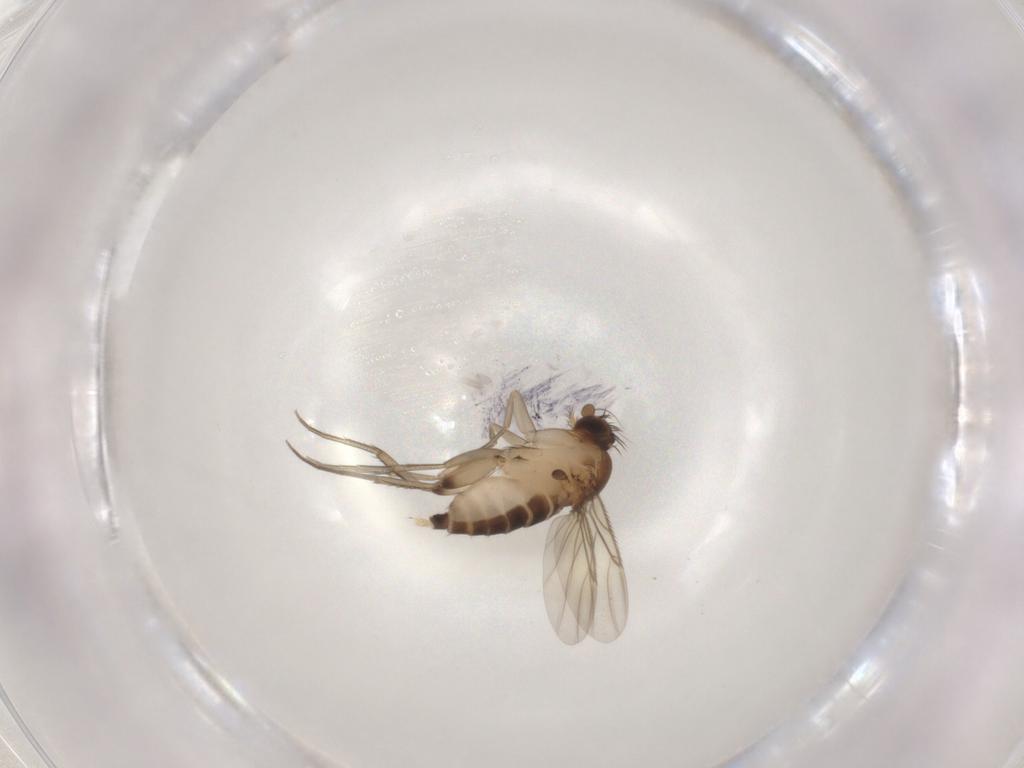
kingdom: Animalia
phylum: Arthropoda
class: Insecta
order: Diptera
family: Phoridae
